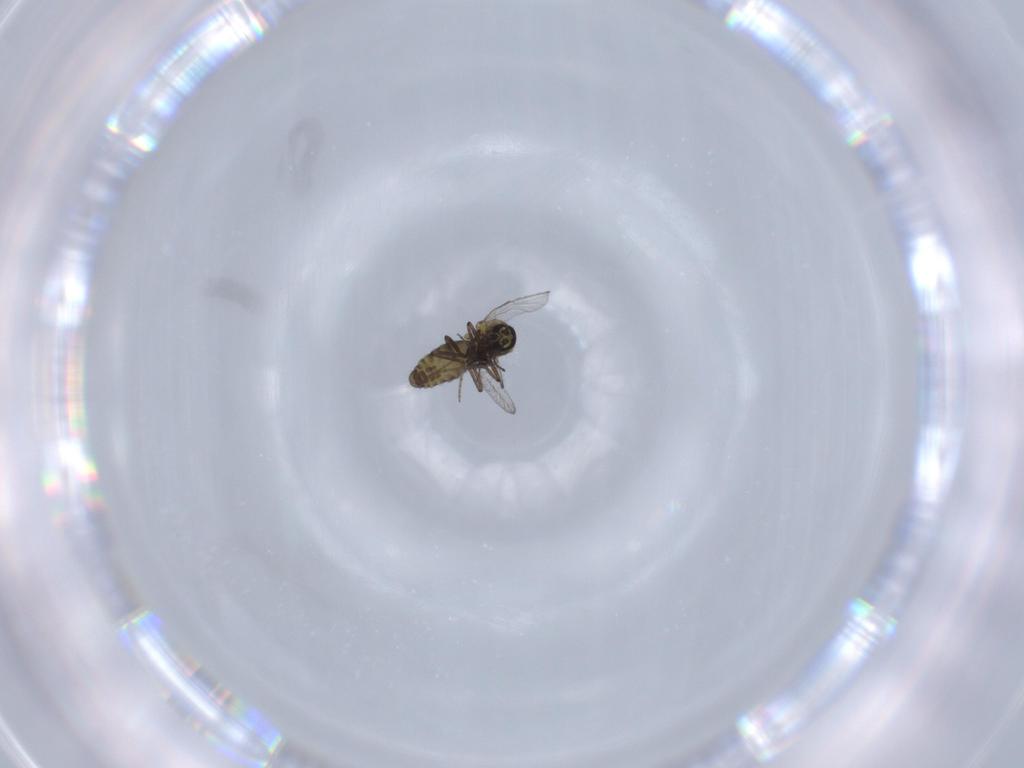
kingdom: Animalia
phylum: Arthropoda
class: Insecta
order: Diptera
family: Ceratopogonidae
